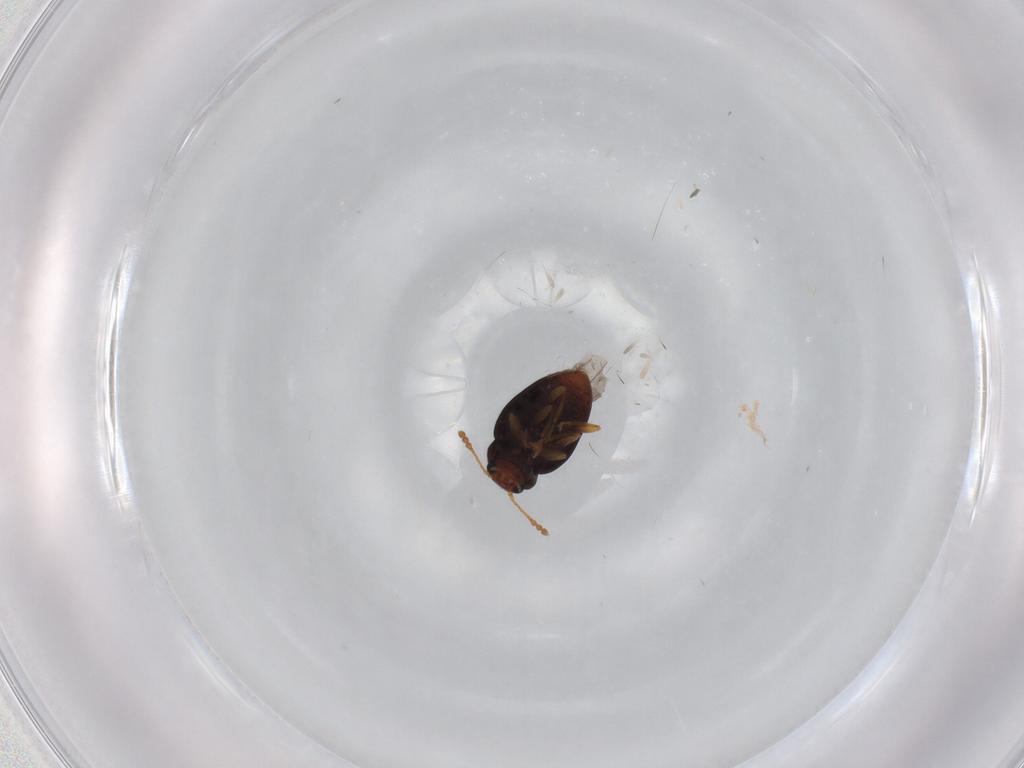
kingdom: Animalia
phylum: Arthropoda
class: Insecta
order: Coleoptera
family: Erotylidae
